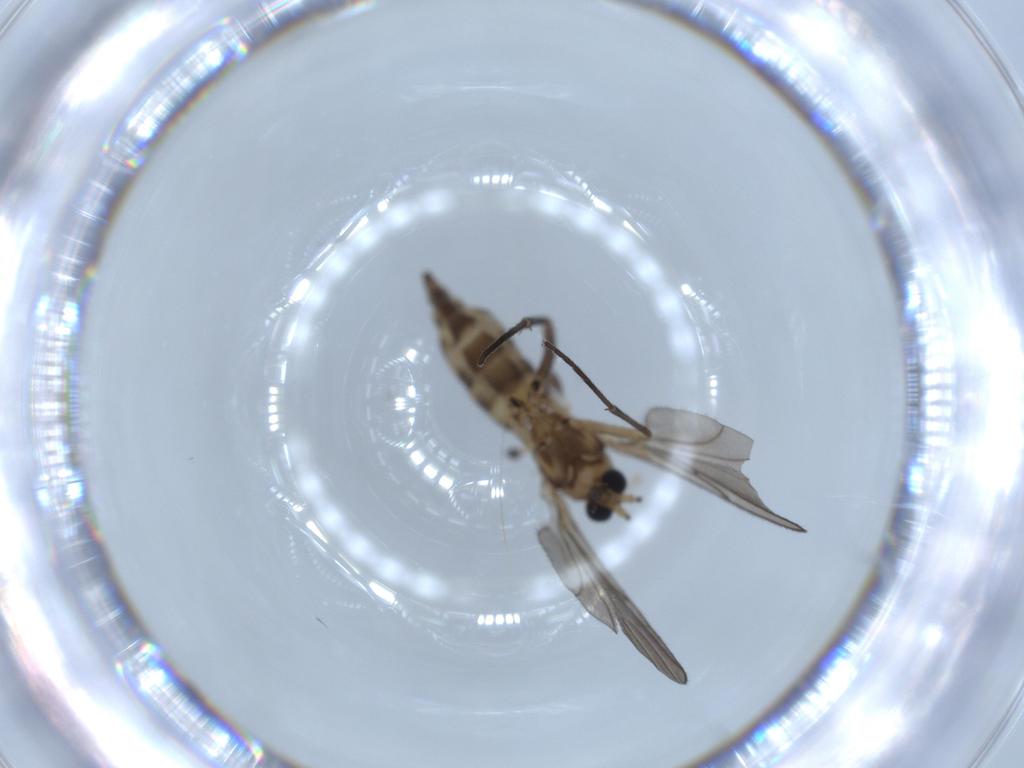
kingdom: Animalia
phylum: Arthropoda
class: Insecta
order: Diptera
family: Sciaridae
